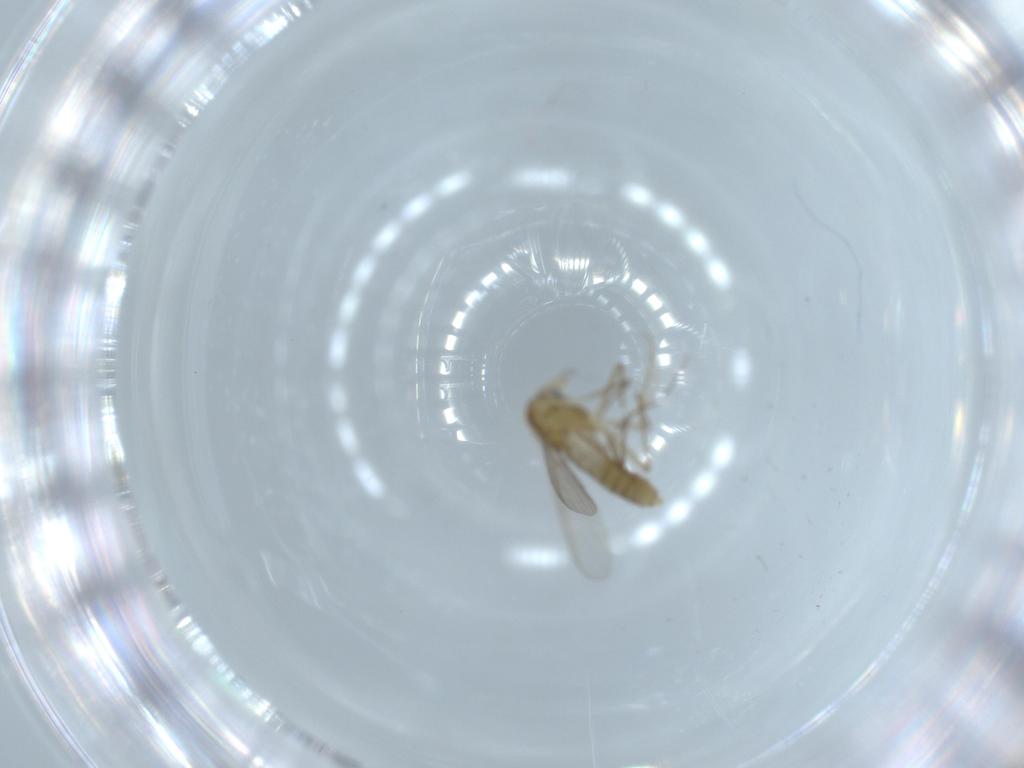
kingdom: Animalia
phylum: Arthropoda
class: Insecta
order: Diptera
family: Chironomidae
